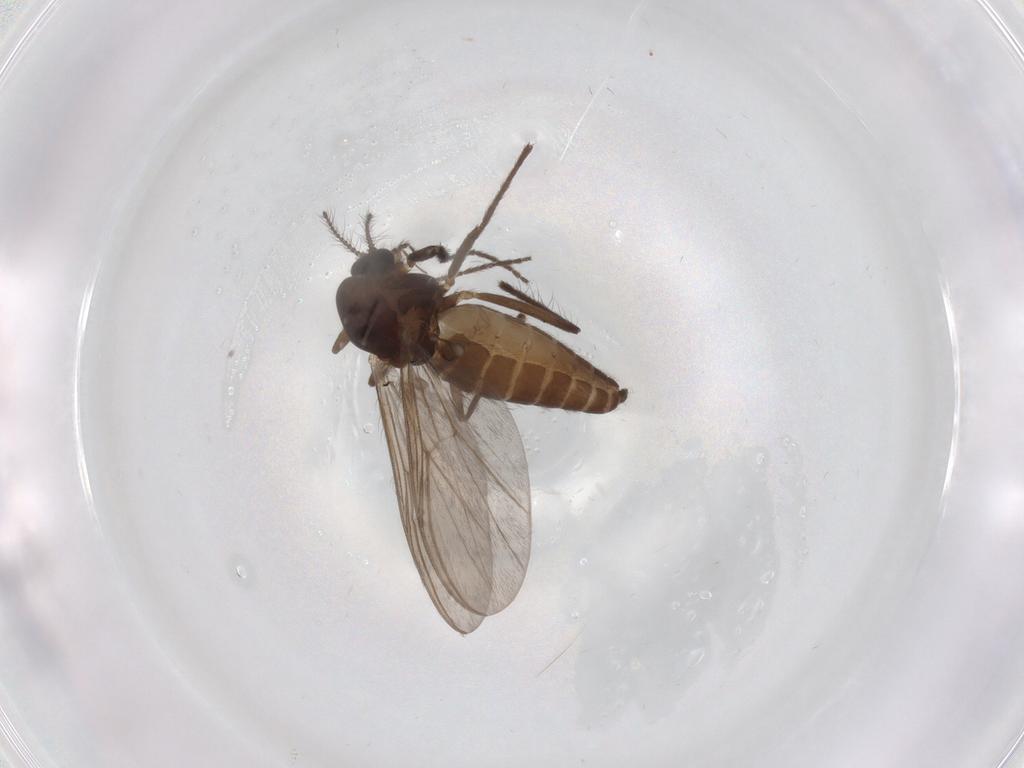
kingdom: Animalia
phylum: Arthropoda
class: Insecta
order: Diptera
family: Chironomidae
